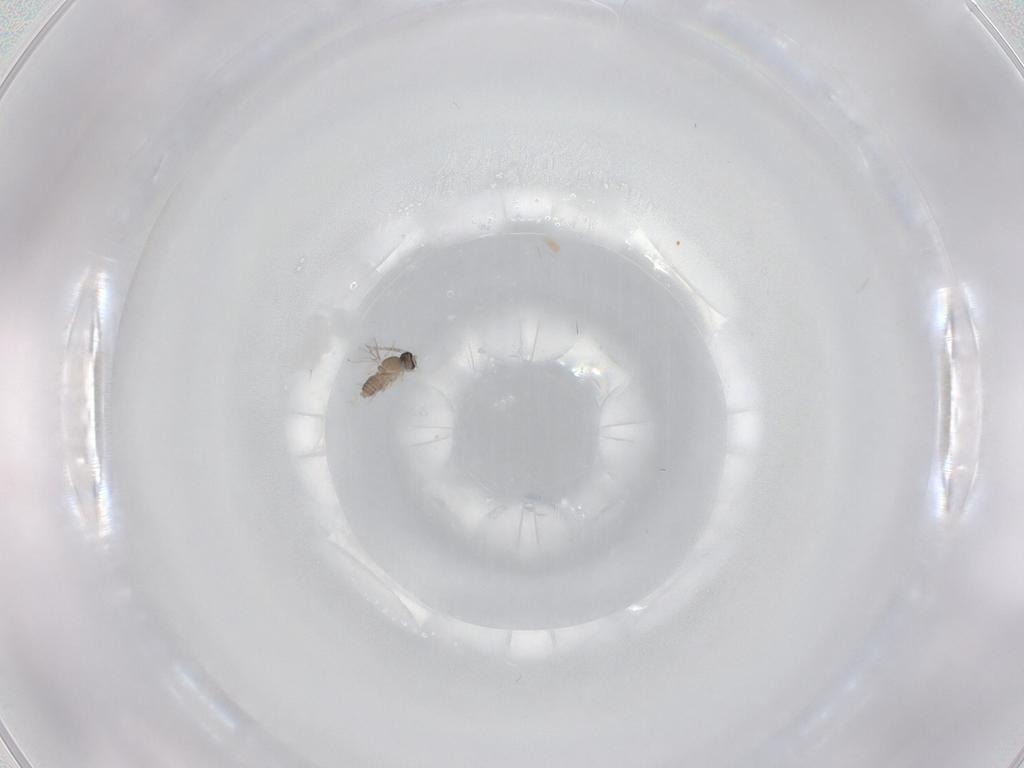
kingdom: Animalia
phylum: Arthropoda
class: Insecta
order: Diptera
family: Cecidomyiidae
